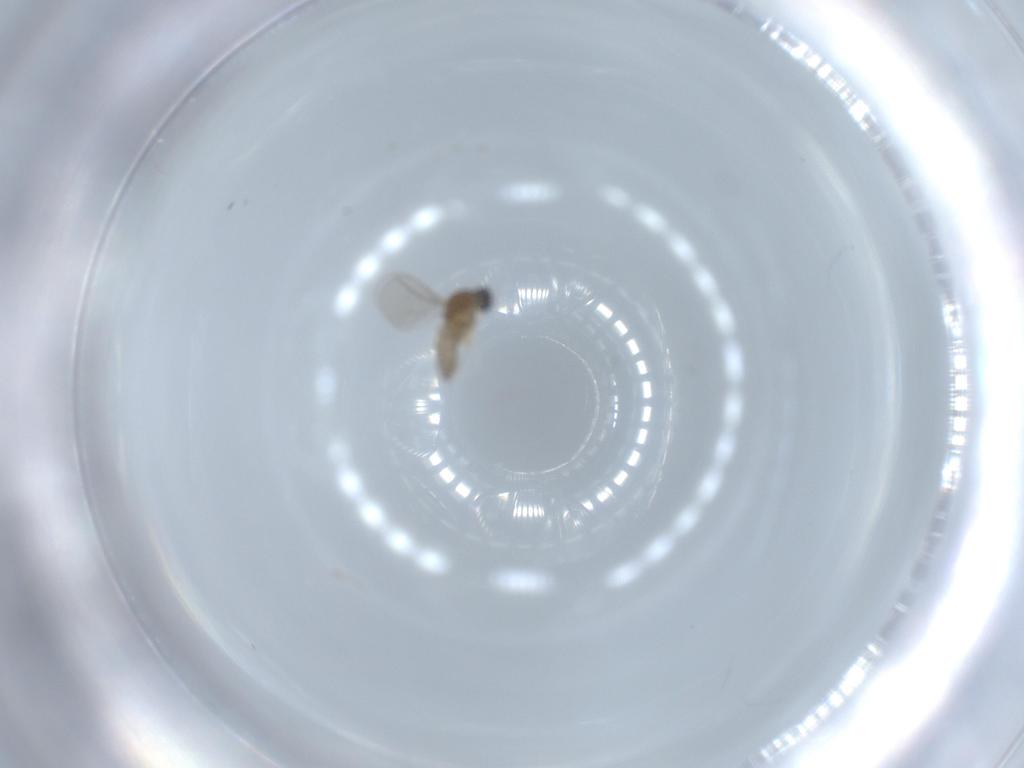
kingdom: Animalia
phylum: Arthropoda
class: Insecta
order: Diptera
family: Cecidomyiidae
